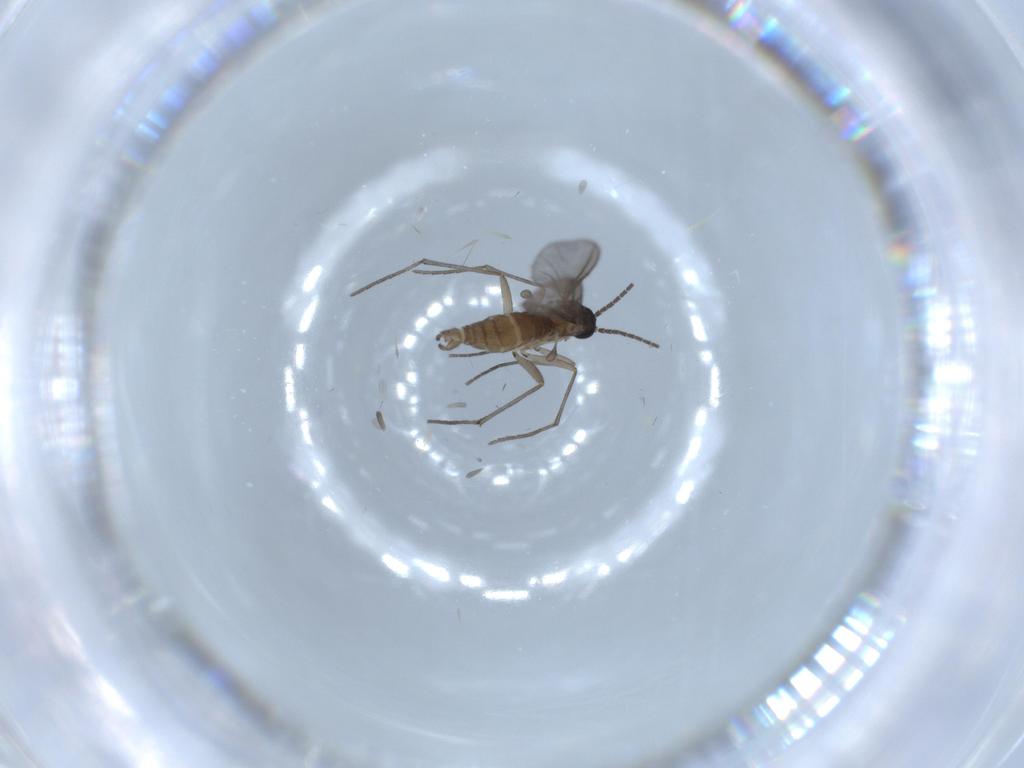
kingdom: Animalia
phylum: Arthropoda
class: Insecta
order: Diptera
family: Sciaridae
